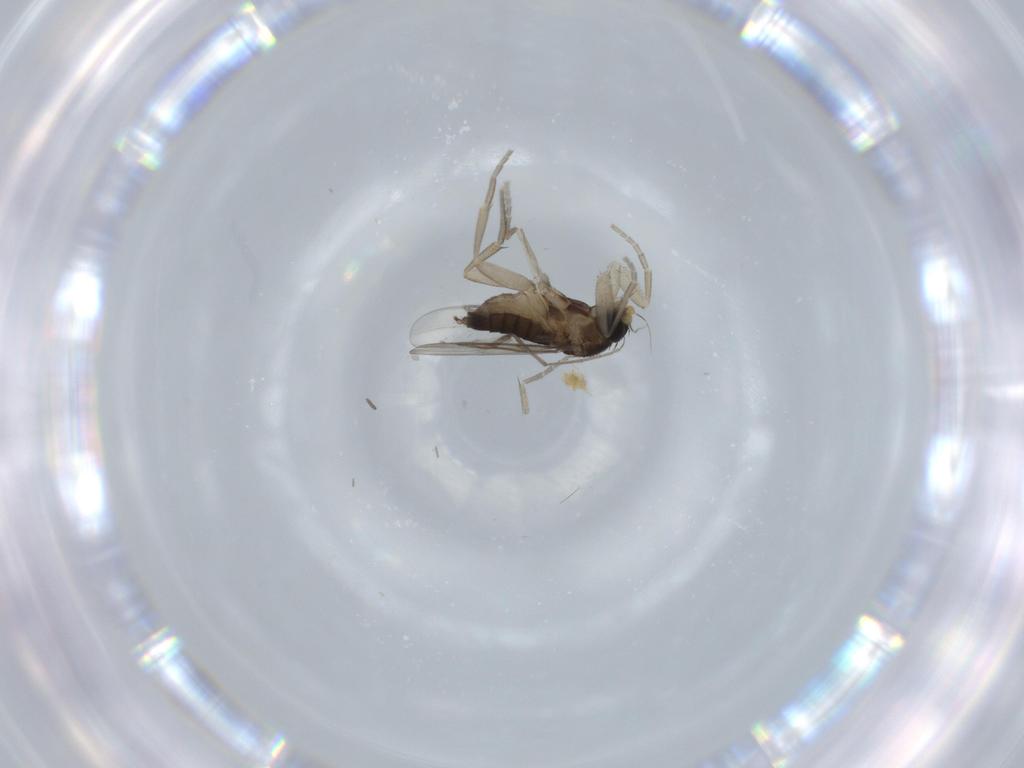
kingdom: Animalia
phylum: Arthropoda
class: Insecta
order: Diptera
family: Phoridae
